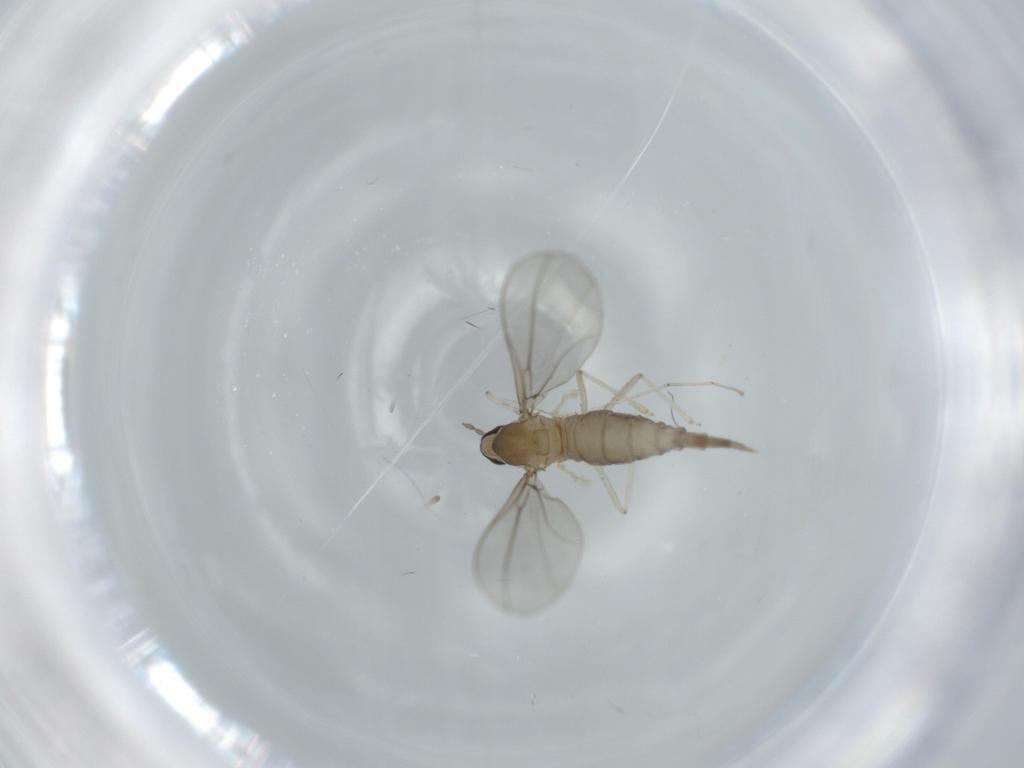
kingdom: Animalia
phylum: Arthropoda
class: Insecta
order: Diptera
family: Cecidomyiidae
